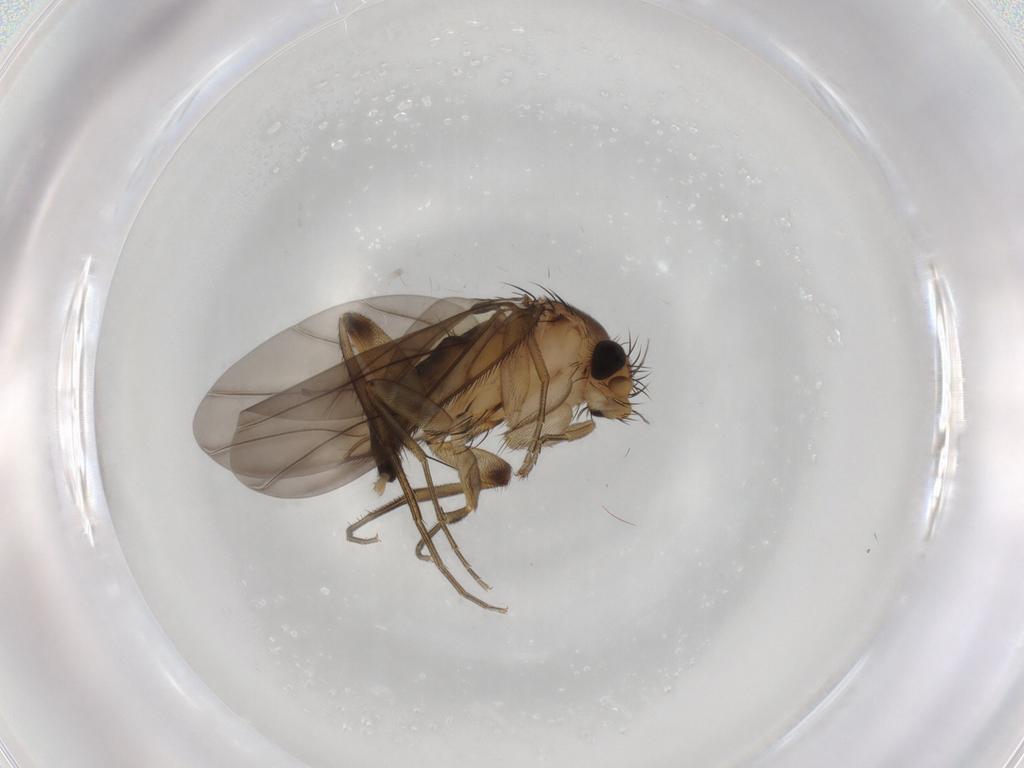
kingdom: Animalia
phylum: Arthropoda
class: Insecta
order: Diptera
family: Phoridae
